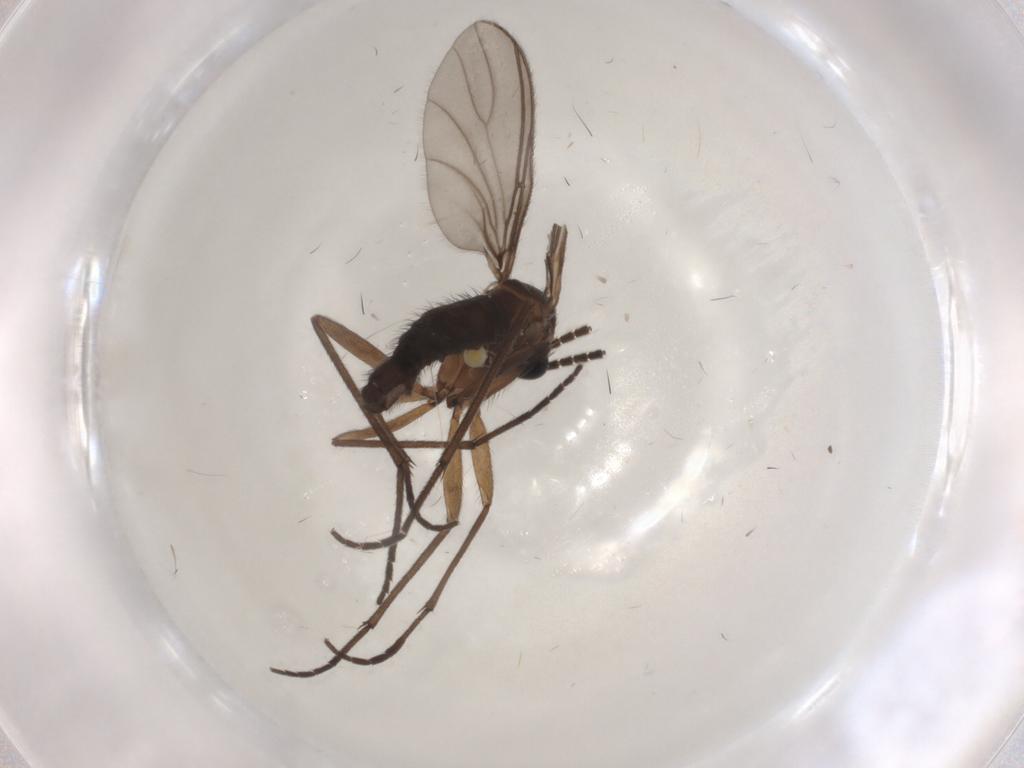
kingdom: Animalia
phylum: Arthropoda
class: Insecta
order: Diptera
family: Sciaridae
